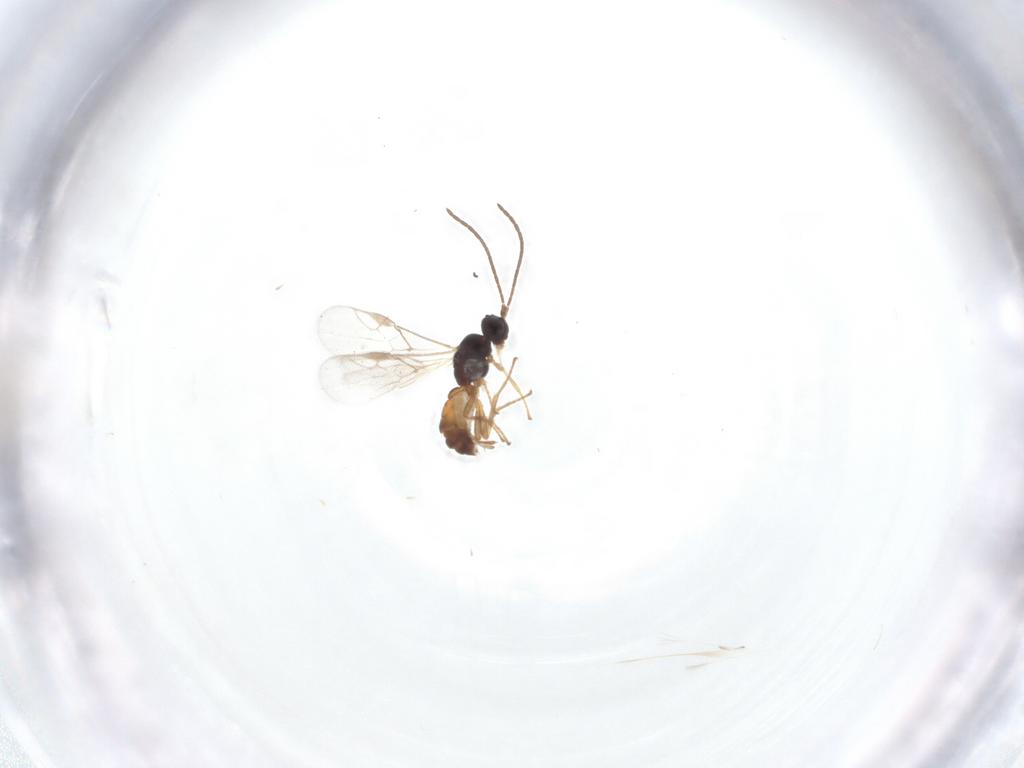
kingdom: Animalia
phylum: Arthropoda
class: Insecta
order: Hymenoptera
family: Braconidae
